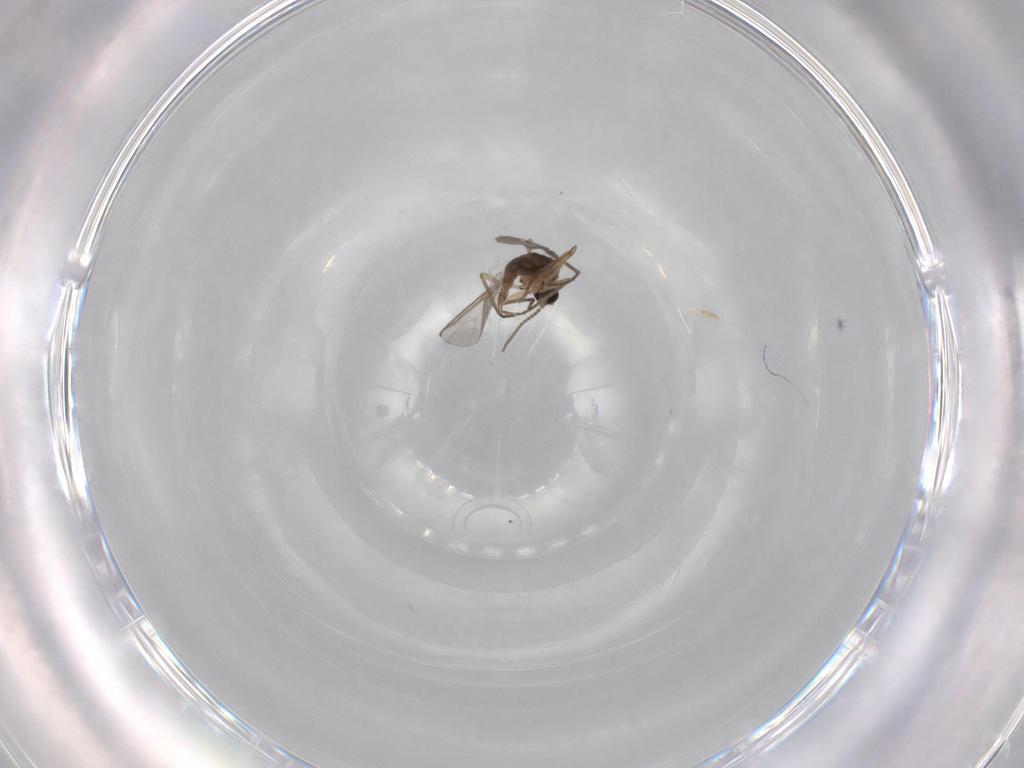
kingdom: Animalia
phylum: Arthropoda
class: Insecta
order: Diptera
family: Sciaridae
